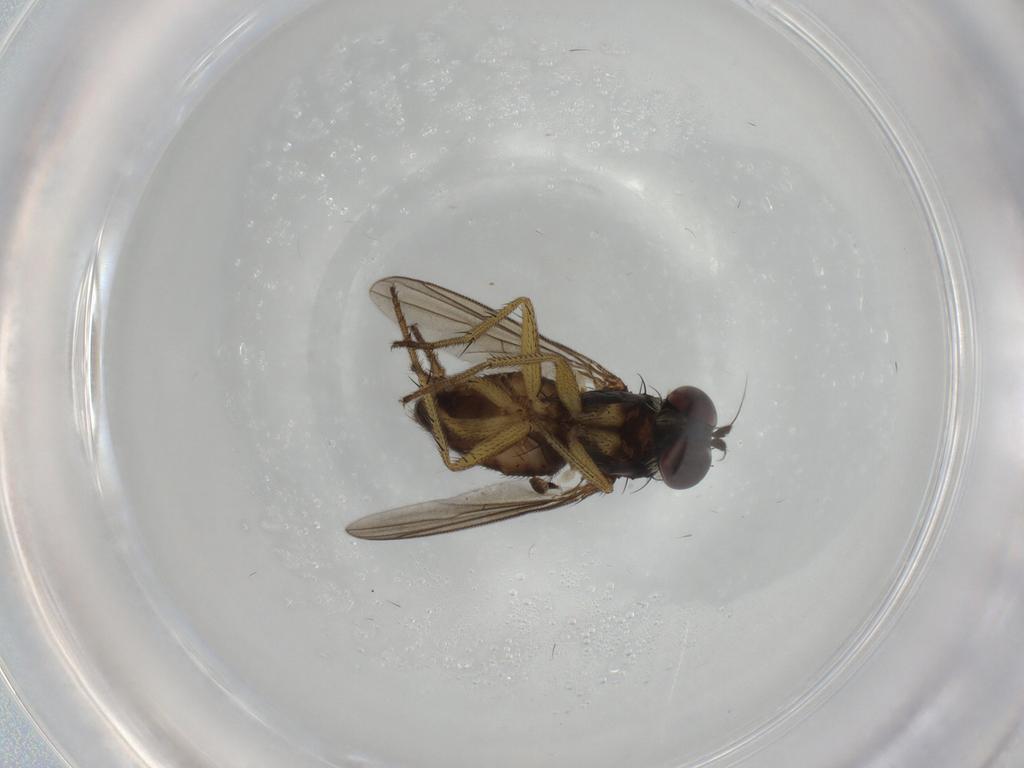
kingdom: Animalia
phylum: Arthropoda
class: Insecta
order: Diptera
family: Dolichopodidae
